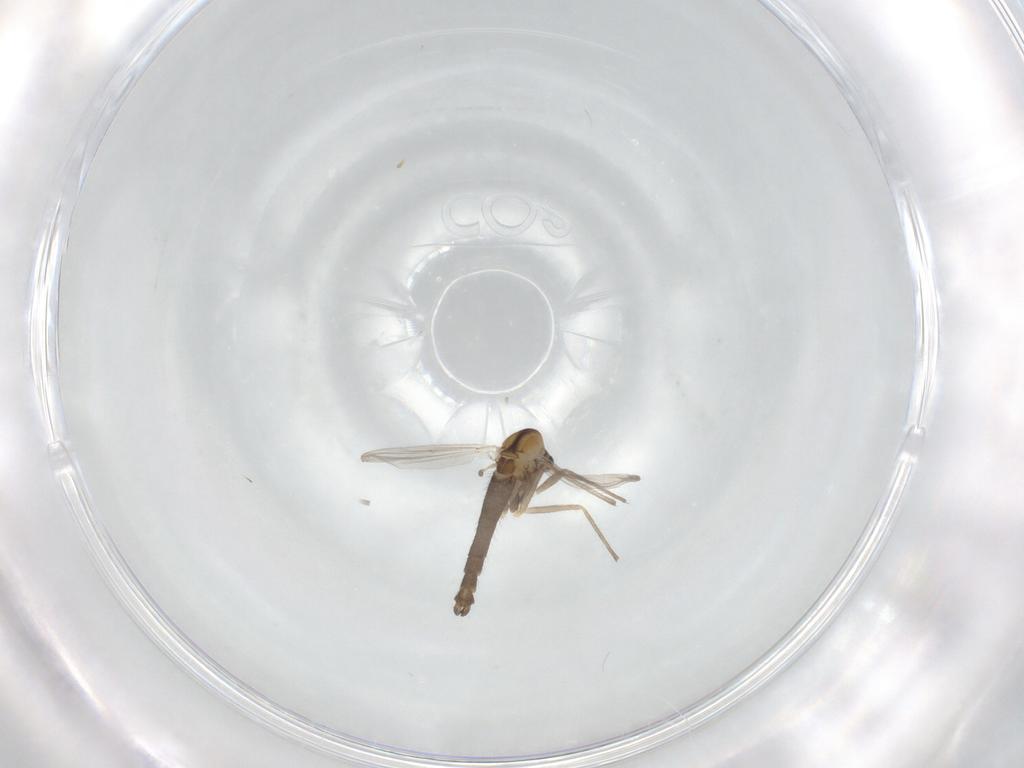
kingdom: Animalia
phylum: Arthropoda
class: Insecta
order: Diptera
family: Chironomidae
